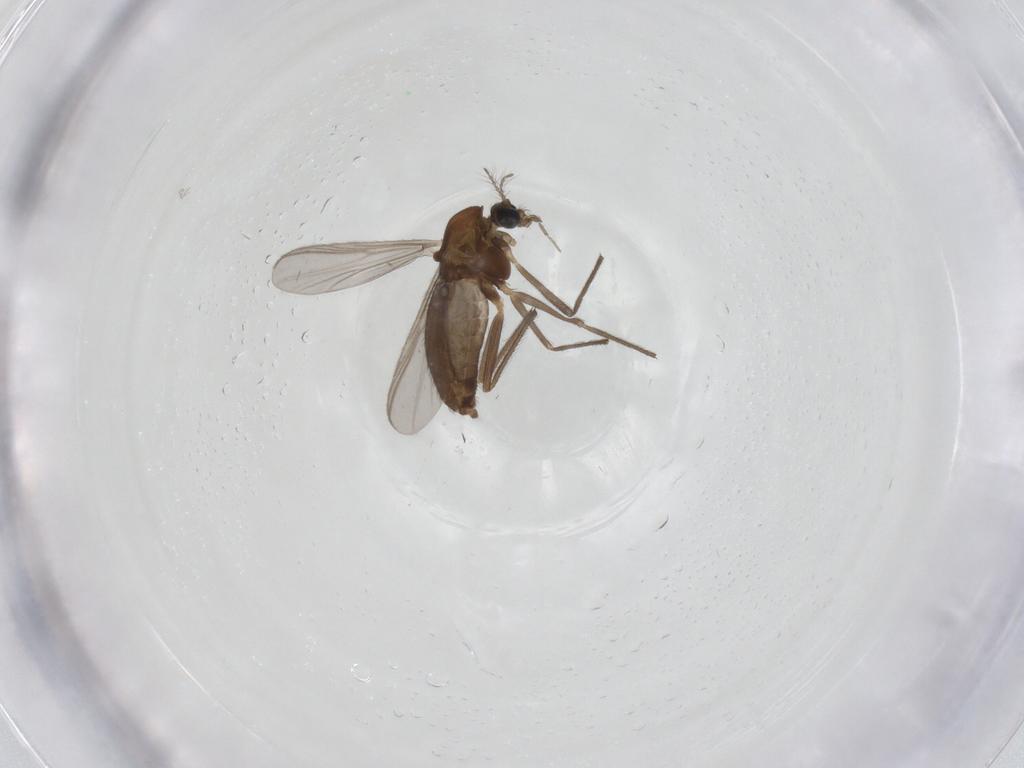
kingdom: Animalia
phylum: Arthropoda
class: Insecta
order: Diptera
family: Chironomidae
